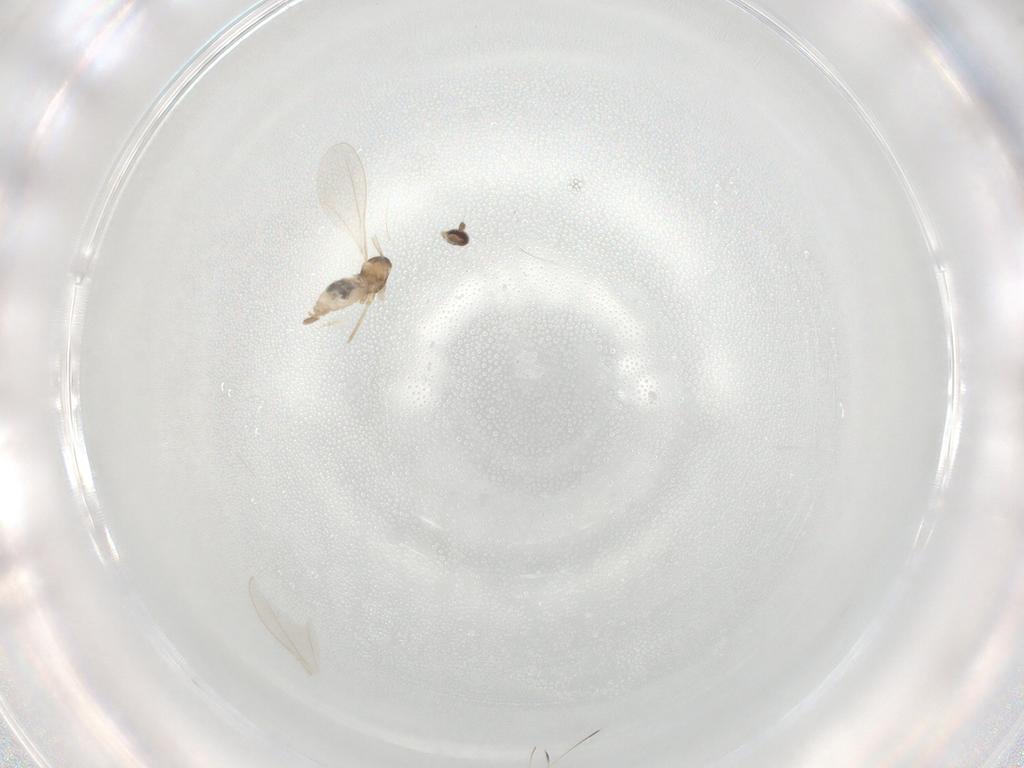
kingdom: Animalia
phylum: Arthropoda
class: Insecta
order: Diptera
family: Cecidomyiidae
